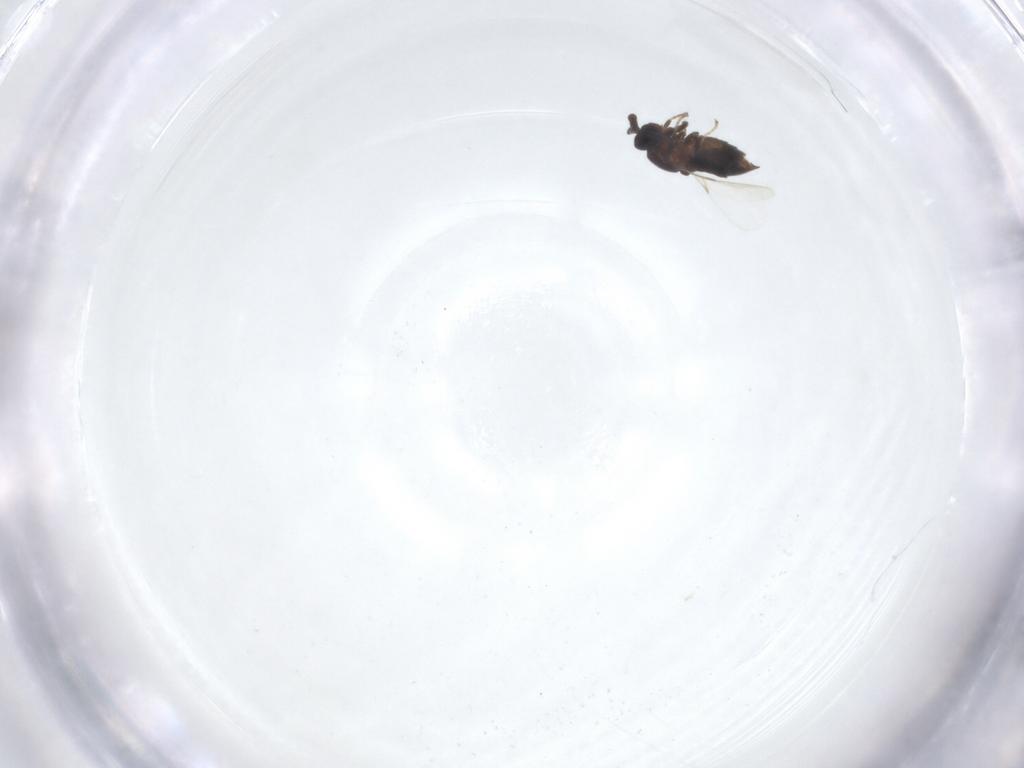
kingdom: Animalia
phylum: Arthropoda
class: Insecta
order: Diptera
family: Scatopsidae
